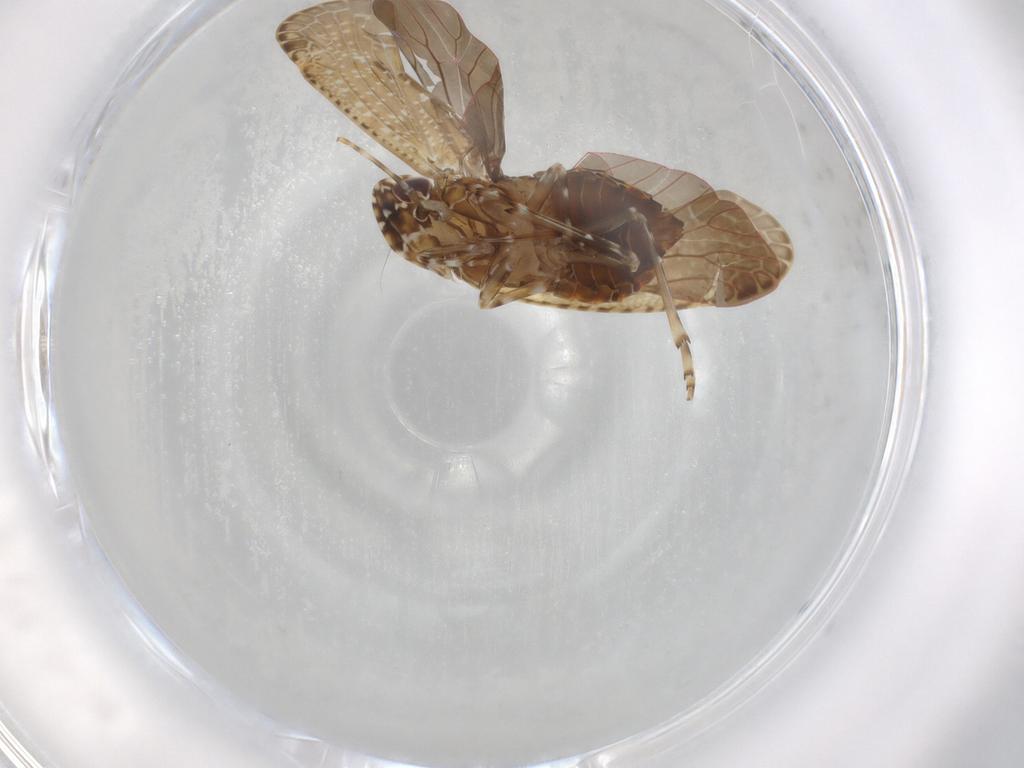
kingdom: Animalia
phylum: Arthropoda
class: Insecta
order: Hemiptera
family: Achilidae
